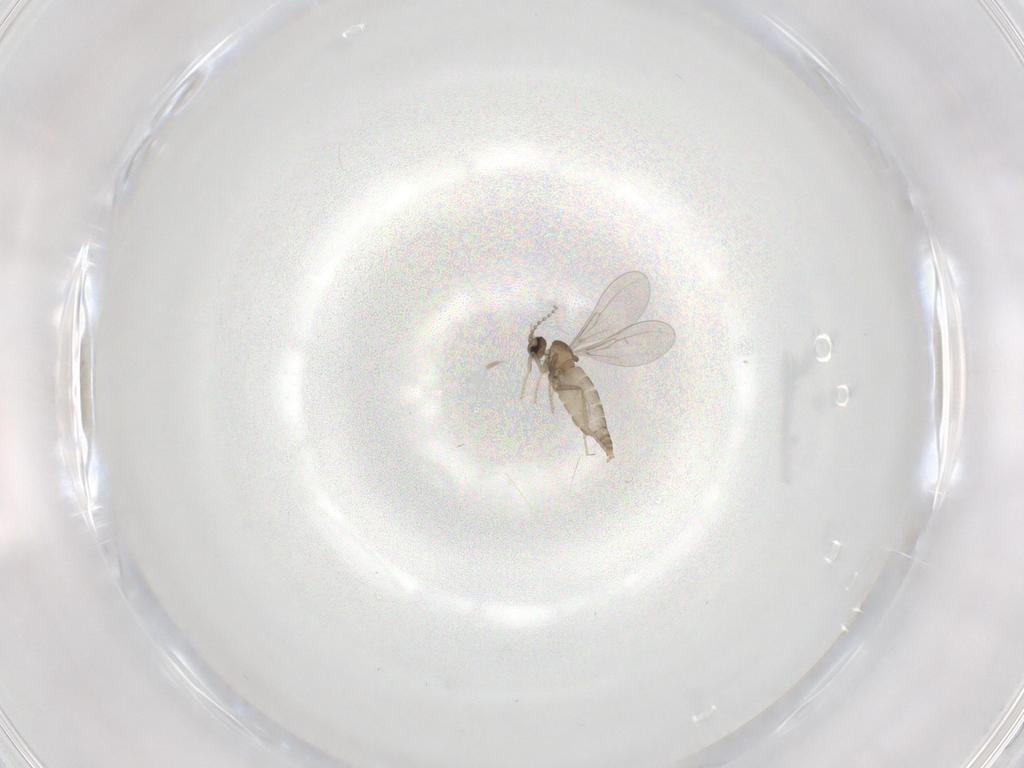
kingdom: Animalia
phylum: Arthropoda
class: Insecta
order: Diptera
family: Cecidomyiidae
